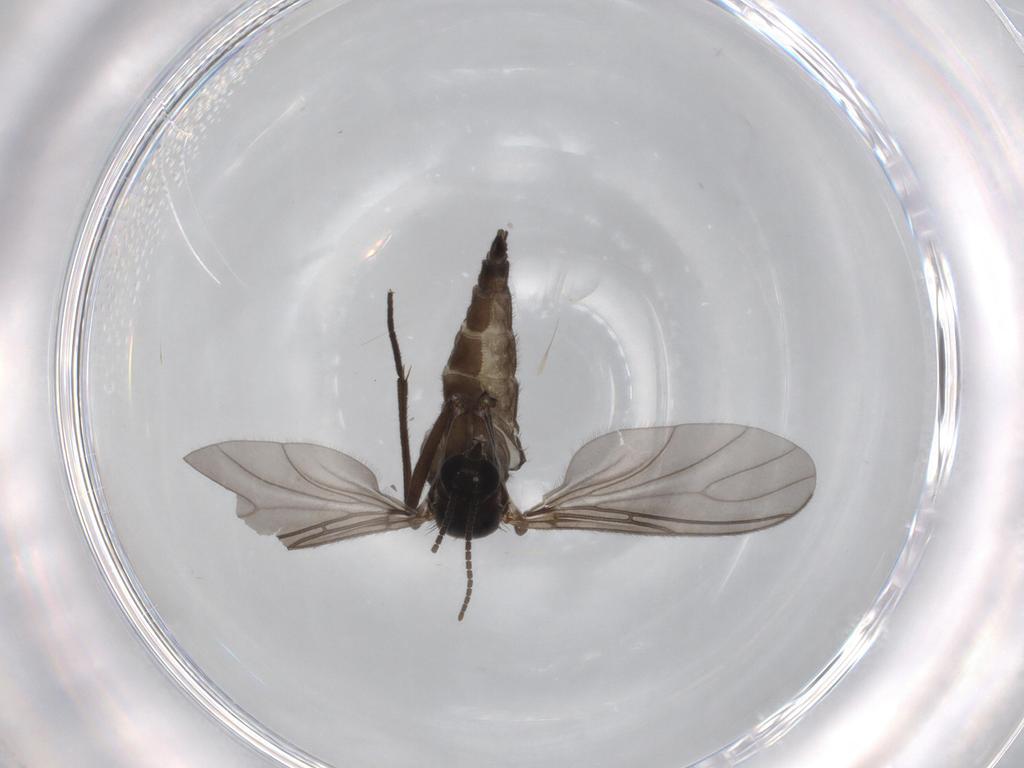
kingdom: Animalia
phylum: Arthropoda
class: Insecta
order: Diptera
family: Sciaridae
